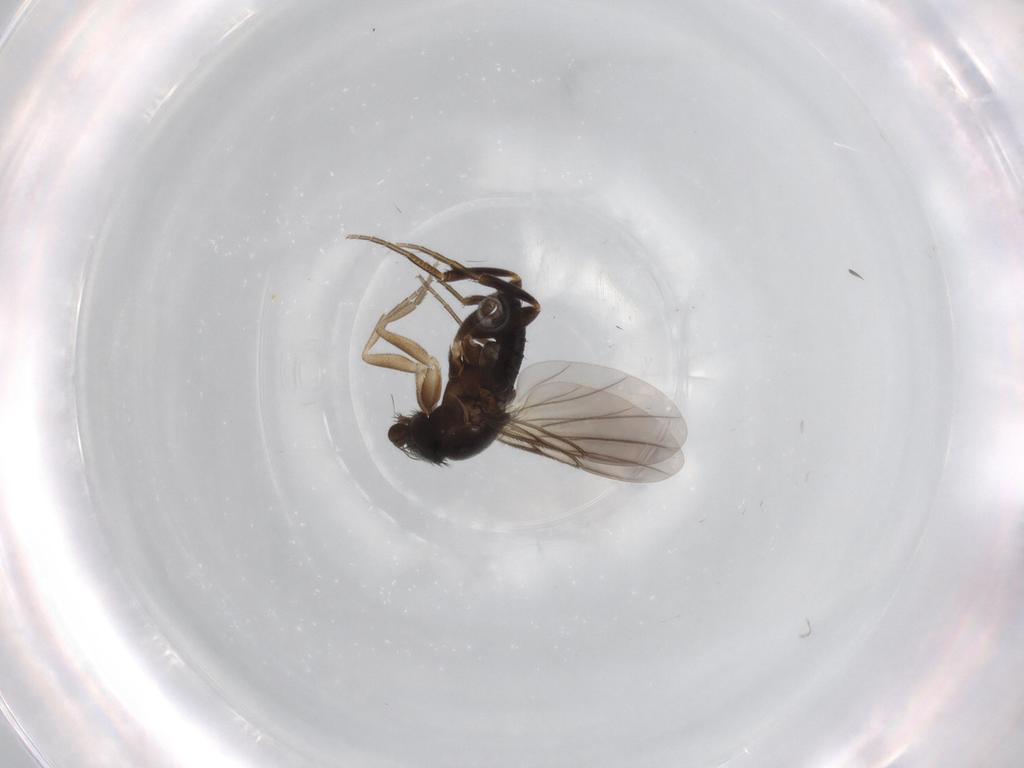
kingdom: Animalia
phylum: Arthropoda
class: Insecta
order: Diptera
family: Phoridae
